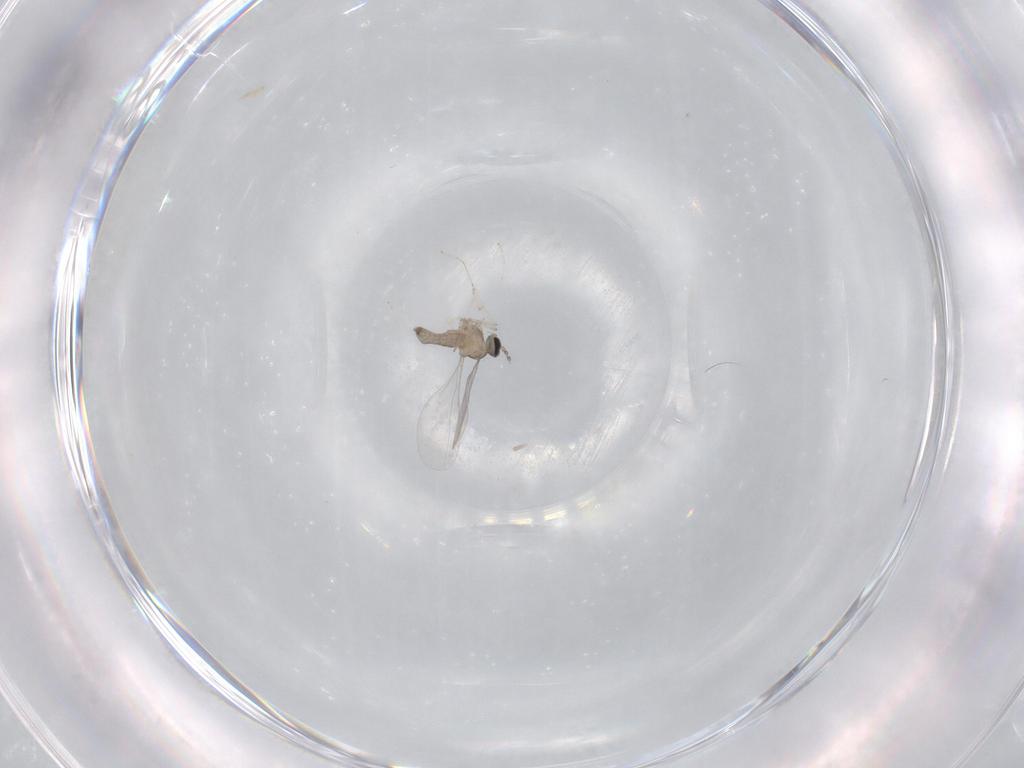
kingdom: Animalia
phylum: Arthropoda
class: Insecta
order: Diptera
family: Cecidomyiidae
